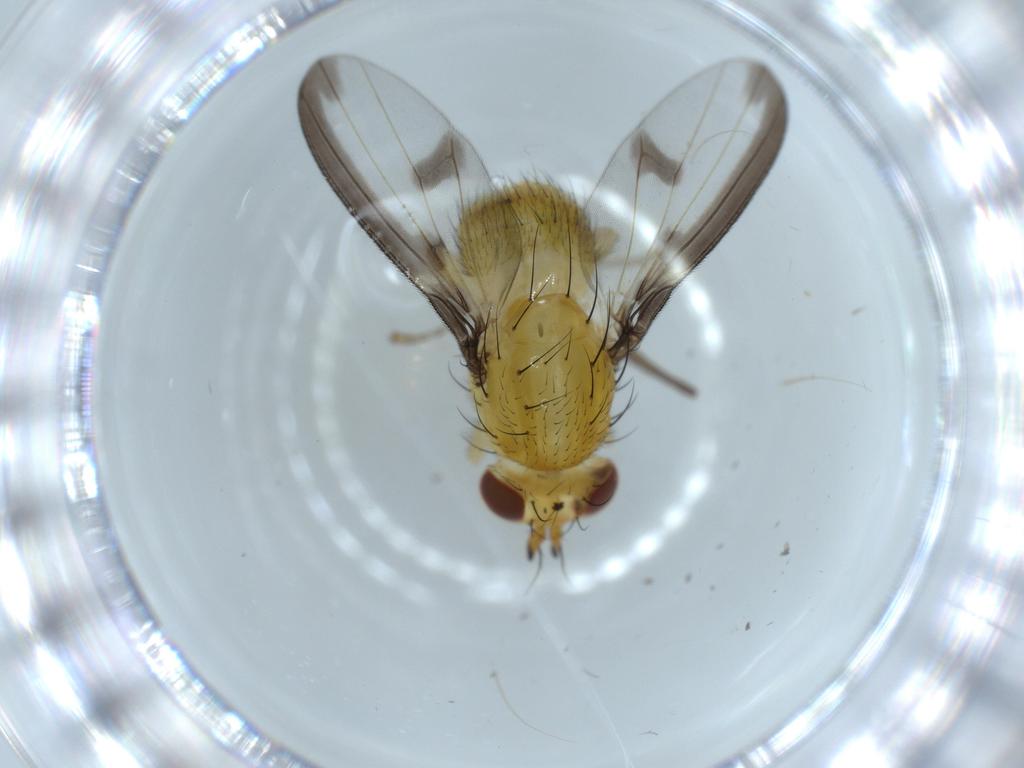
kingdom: Animalia
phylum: Arthropoda
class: Insecta
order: Diptera
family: Lauxaniidae
